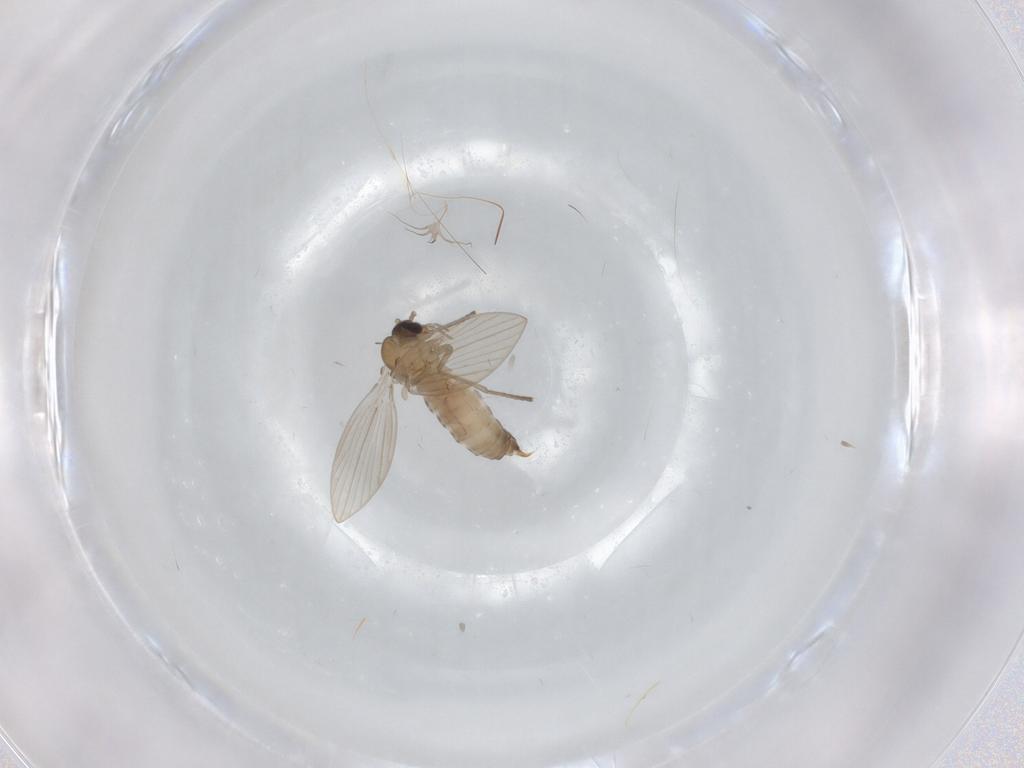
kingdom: Animalia
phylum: Arthropoda
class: Insecta
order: Diptera
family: Psychodidae
